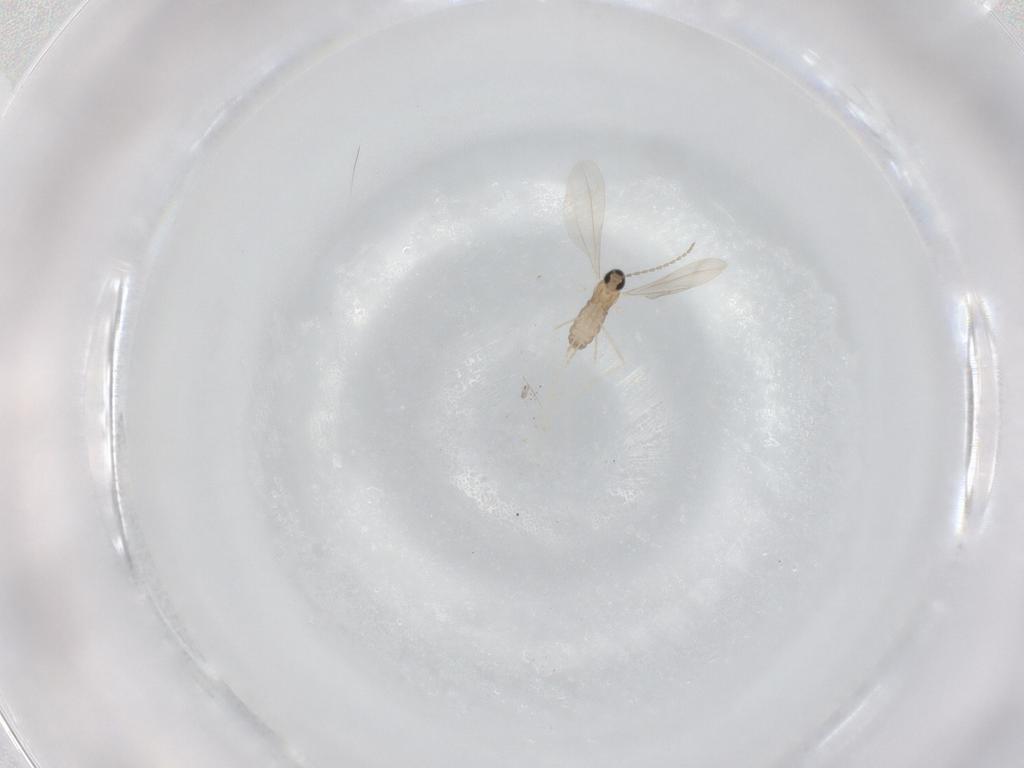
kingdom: Animalia
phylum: Arthropoda
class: Insecta
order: Diptera
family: Cecidomyiidae
